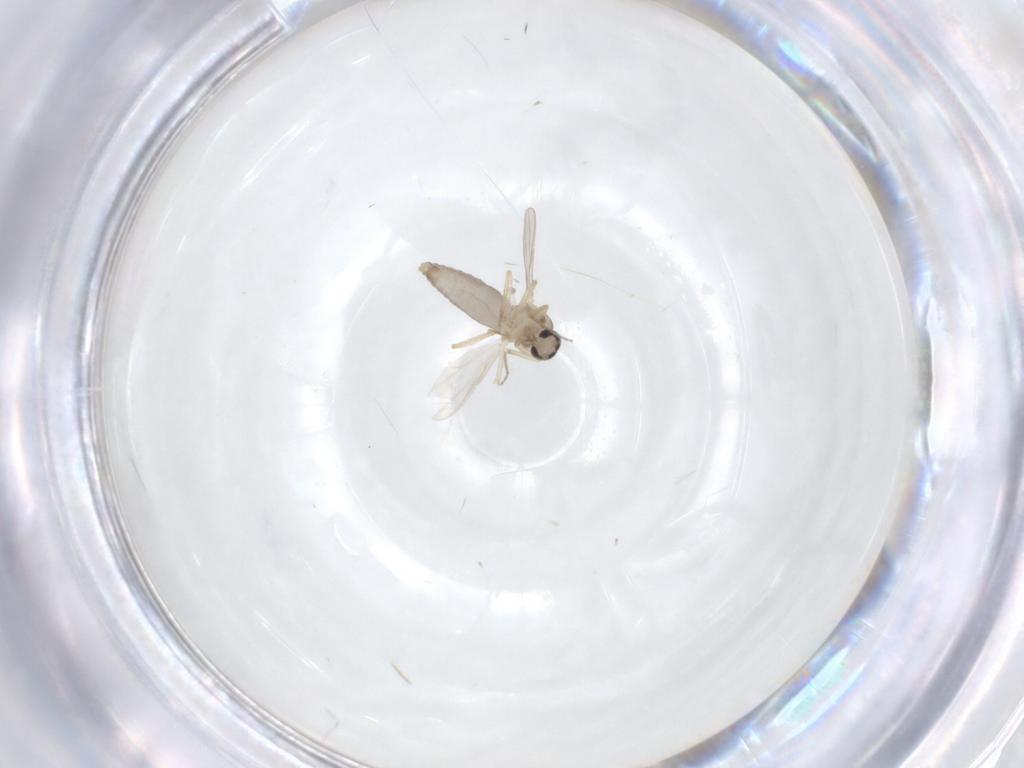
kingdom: Animalia
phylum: Arthropoda
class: Insecta
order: Diptera
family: Ceratopogonidae
